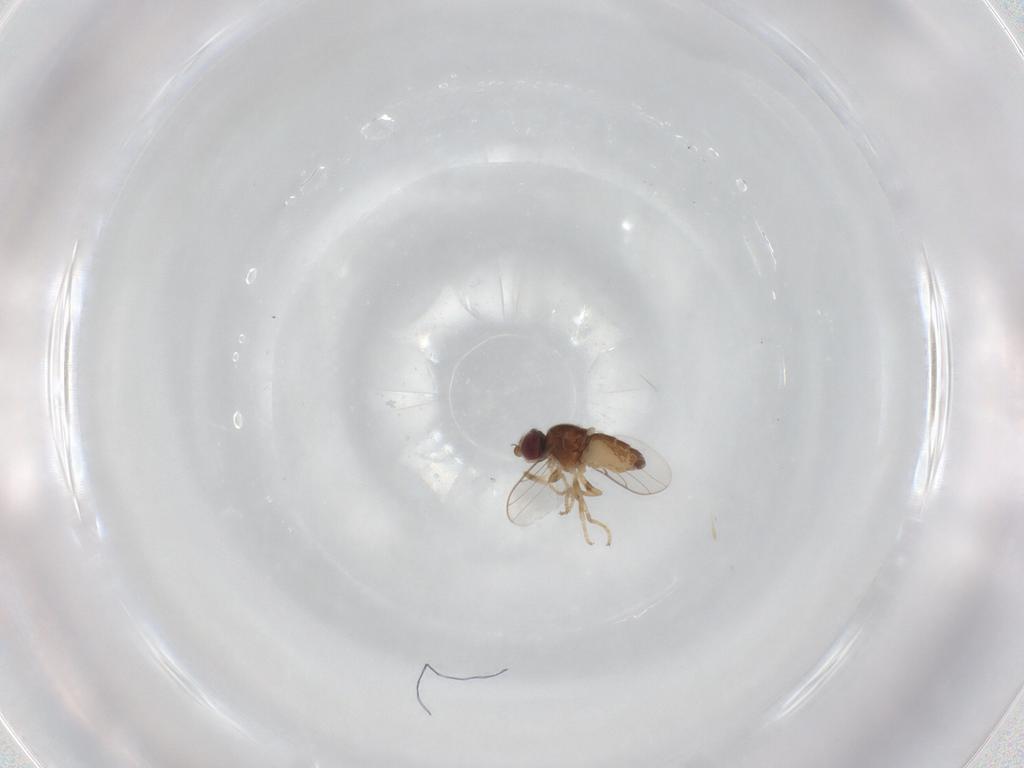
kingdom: Animalia
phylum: Arthropoda
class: Insecta
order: Diptera
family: Chloropidae
